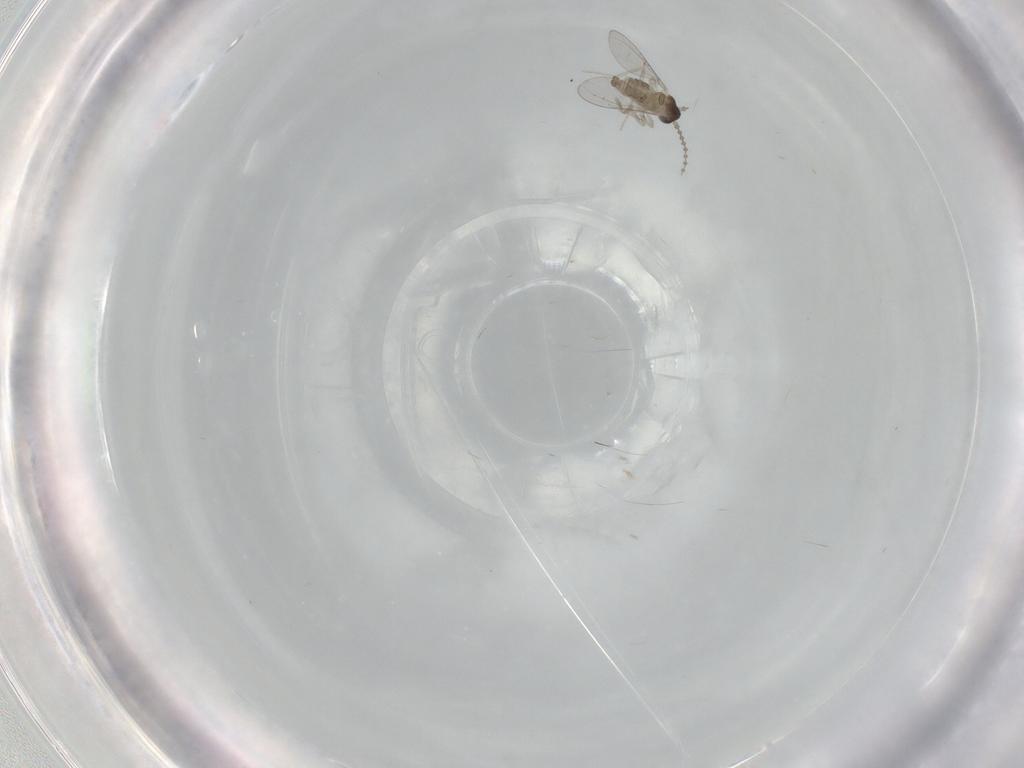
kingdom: Animalia
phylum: Arthropoda
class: Insecta
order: Diptera
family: Cecidomyiidae
